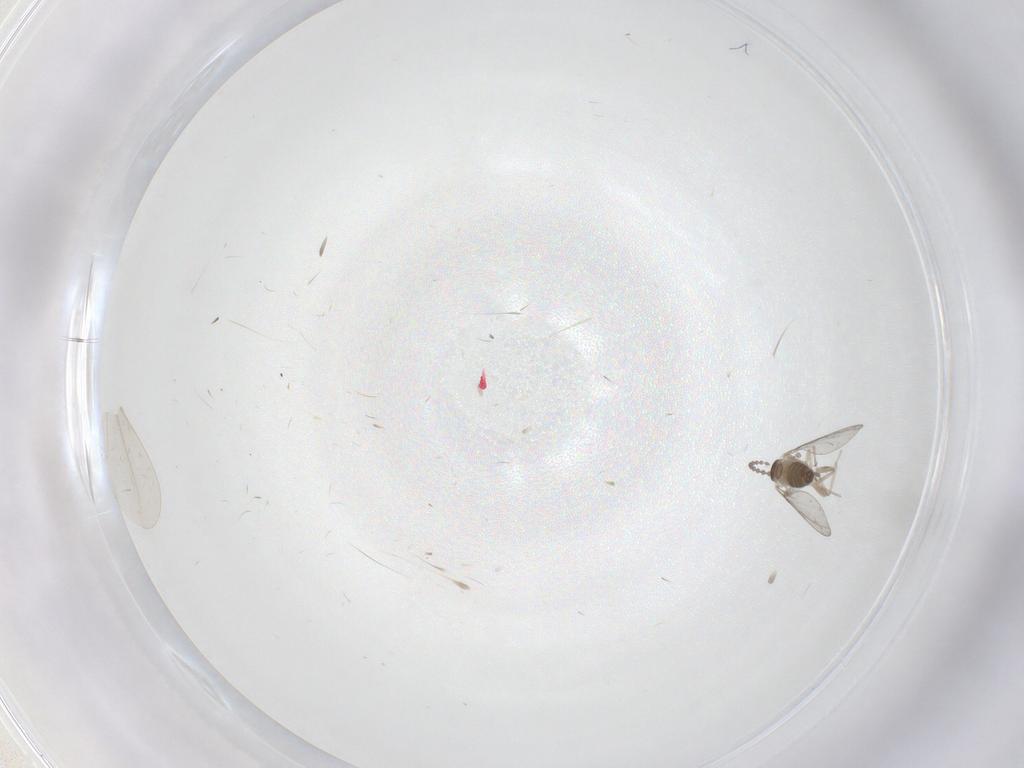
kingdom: Animalia
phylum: Arthropoda
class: Insecta
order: Diptera
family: Cecidomyiidae
